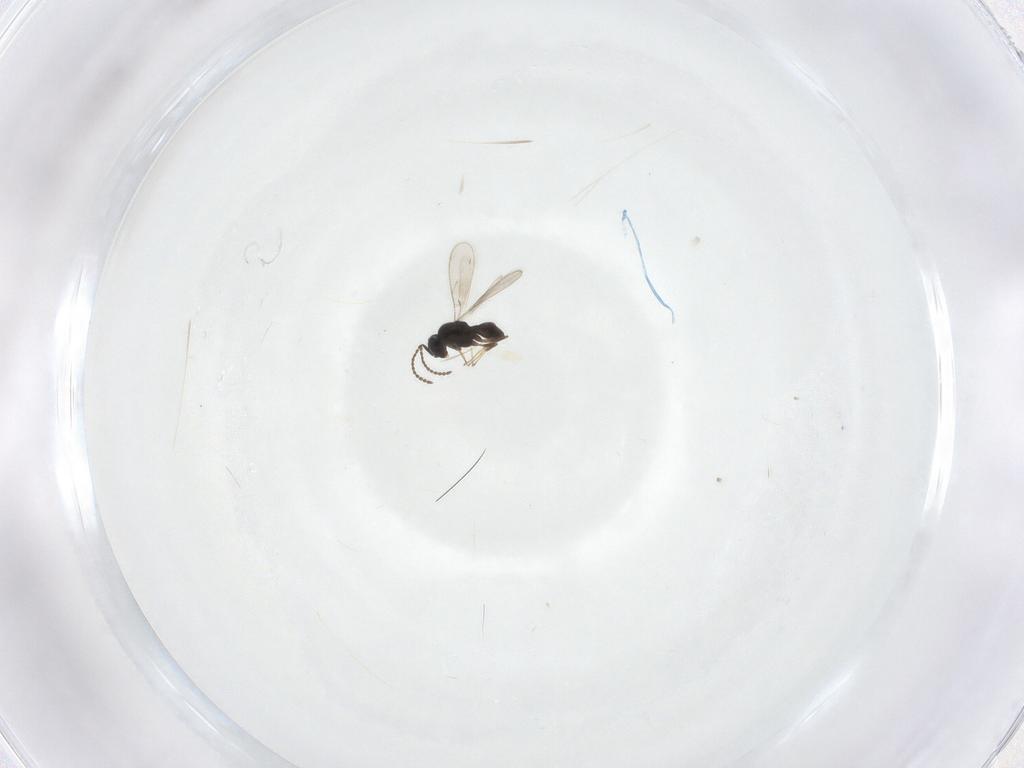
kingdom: Animalia
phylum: Arthropoda
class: Insecta
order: Hymenoptera
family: Scelionidae
